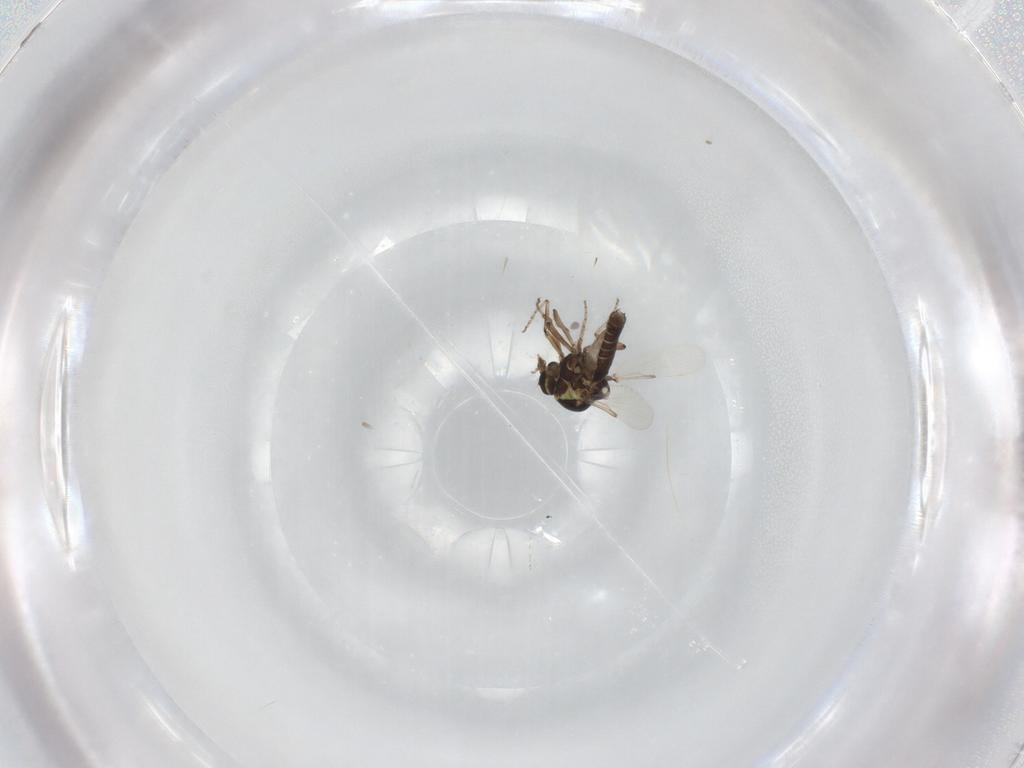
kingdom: Animalia
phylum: Arthropoda
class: Insecta
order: Diptera
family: Ceratopogonidae
